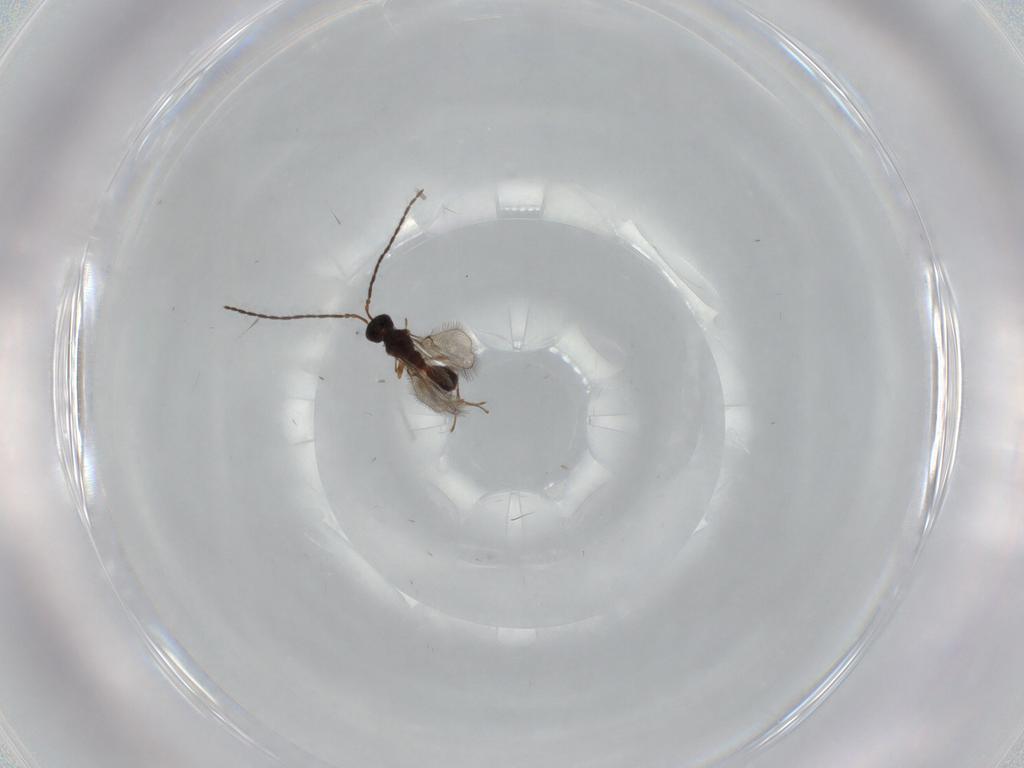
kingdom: Animalia
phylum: Arthropoda
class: Insecta
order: Hymenoptera
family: Diapriidae
